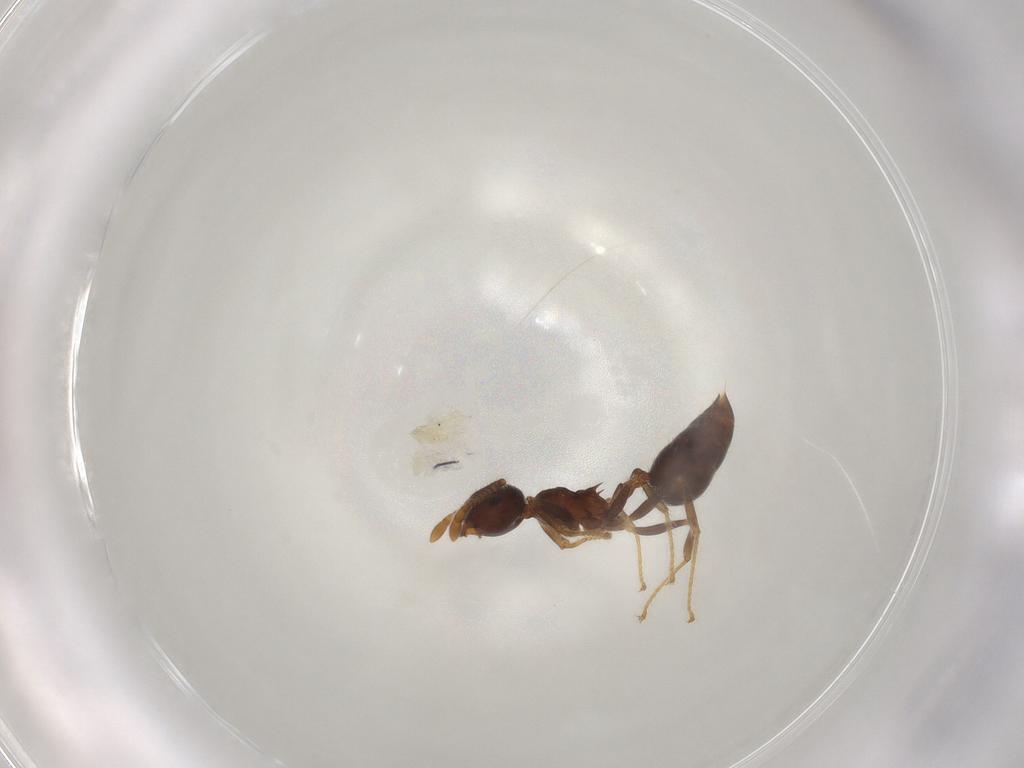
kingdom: Animalia
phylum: Arthropoda
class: Insecta
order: Hymenoptera
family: Formicidae
